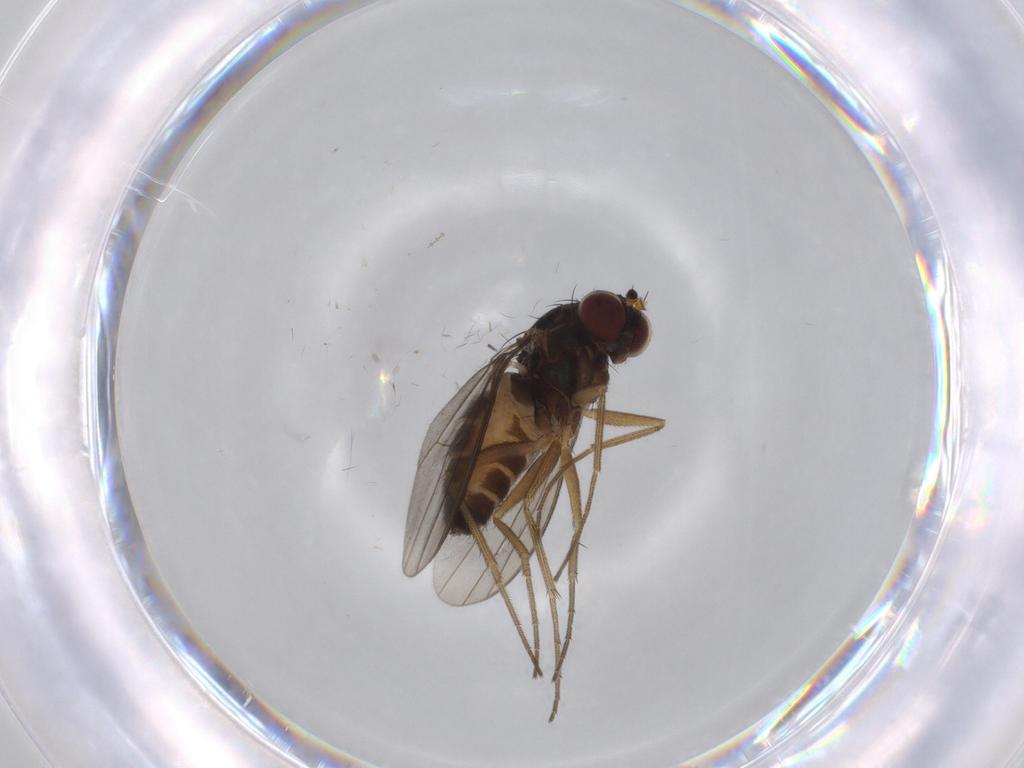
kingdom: Animalia
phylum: Arthropoda
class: Insecta
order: Diptera
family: Dolichopodidae
